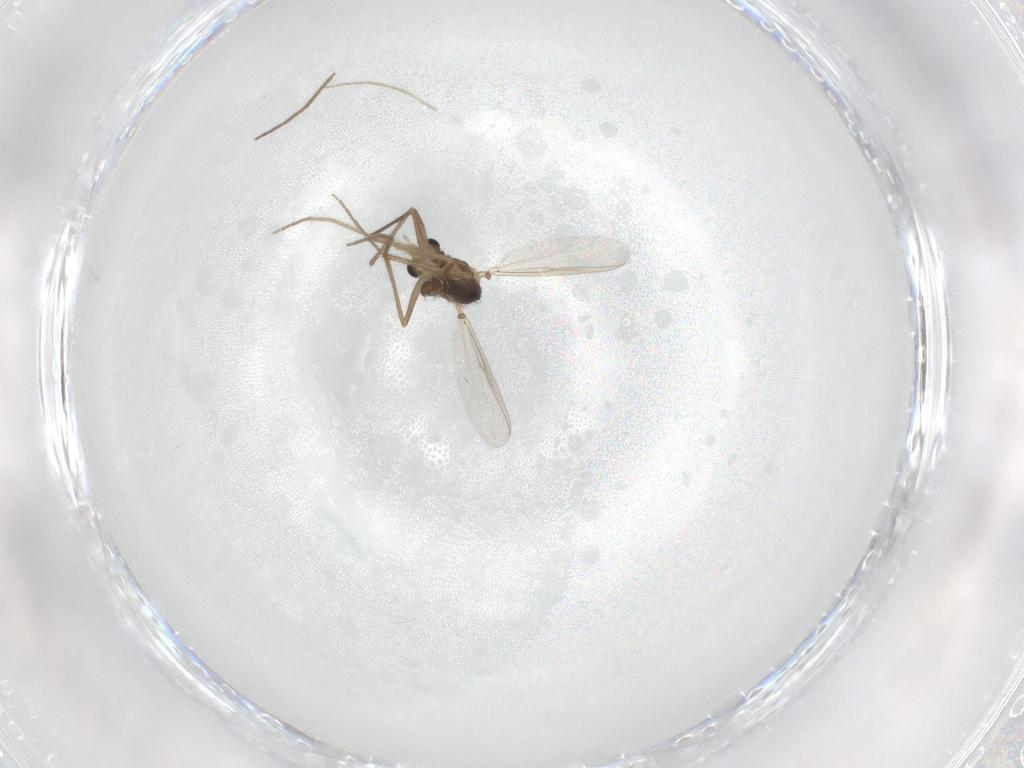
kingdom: Animalia
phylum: Arthropoda
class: Insecta
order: Diptera
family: Chironomidae
